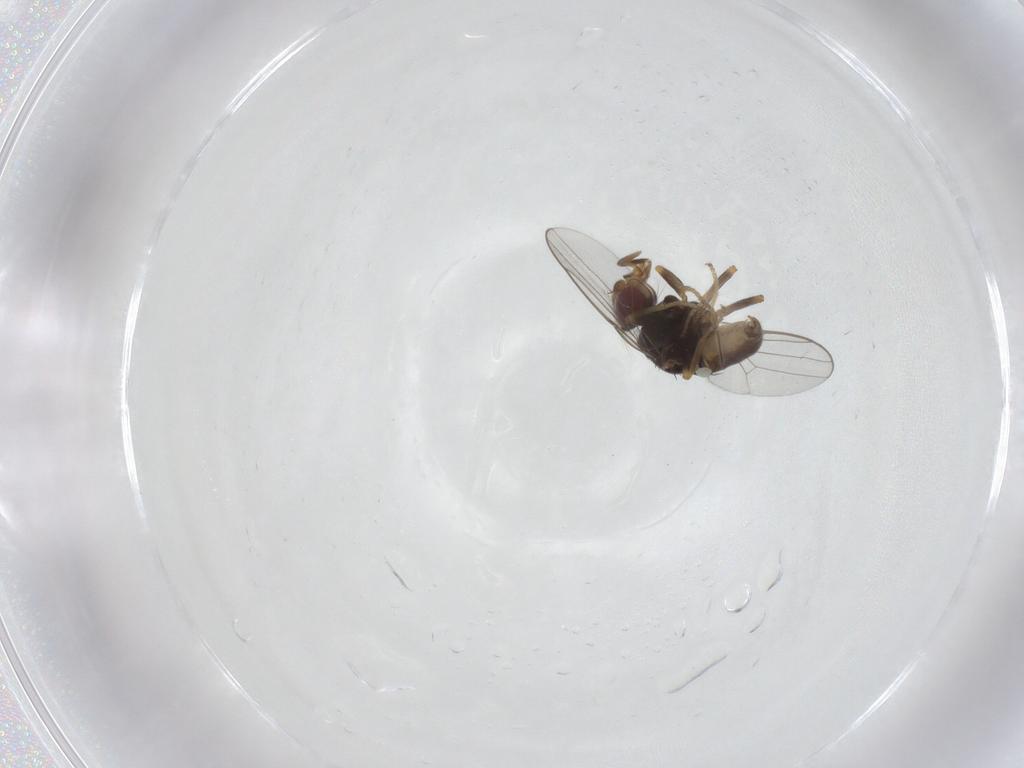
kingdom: Animalia
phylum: Arthropoda
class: Insecta
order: Diptera
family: Chloropidae
